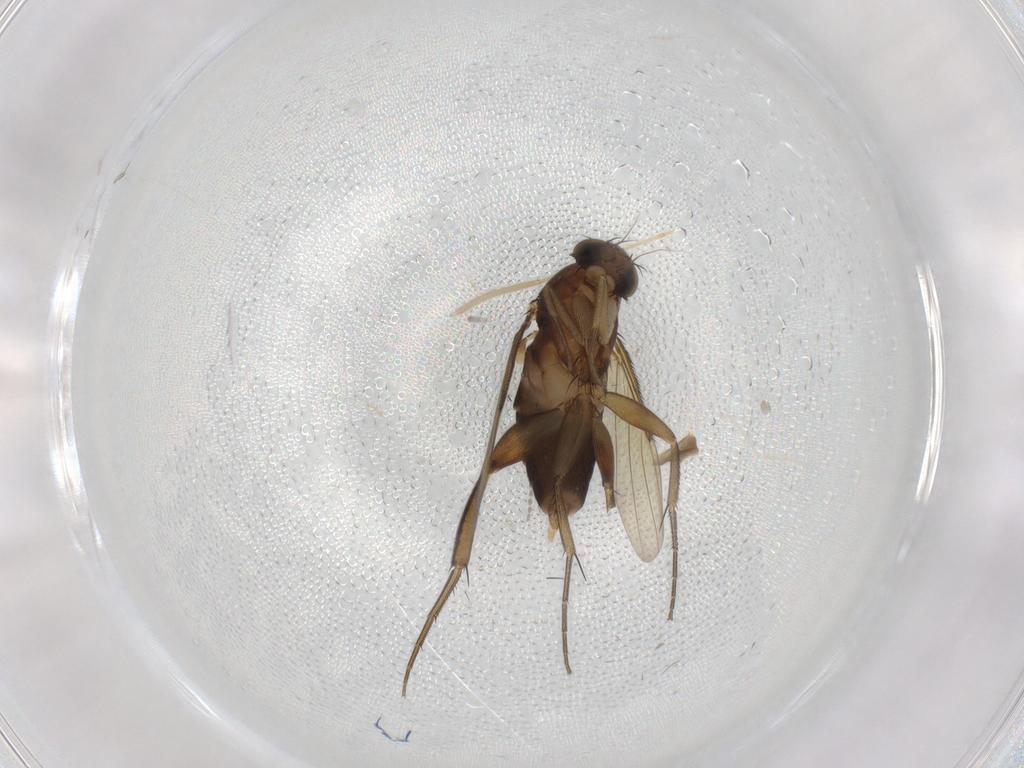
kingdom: Animalia
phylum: Arthropoda
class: Insecta
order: Diptera
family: Phoridae
